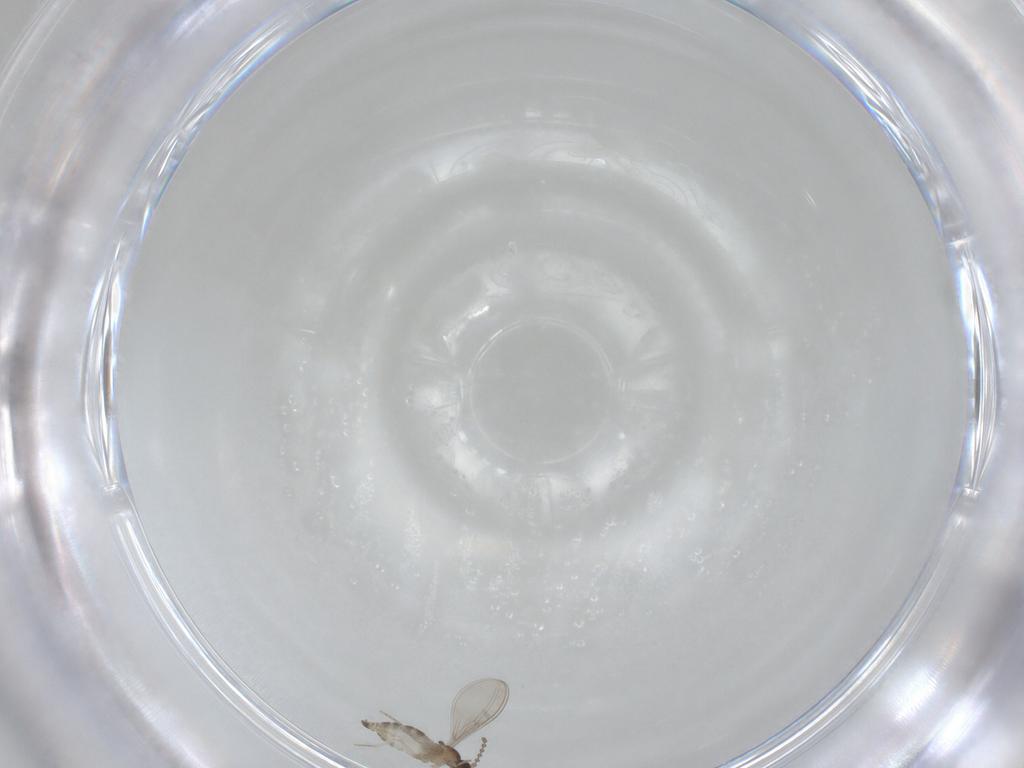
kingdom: Animalia
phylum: Arthropoda
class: Insecta
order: Diptera
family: Cecidomyiidae
